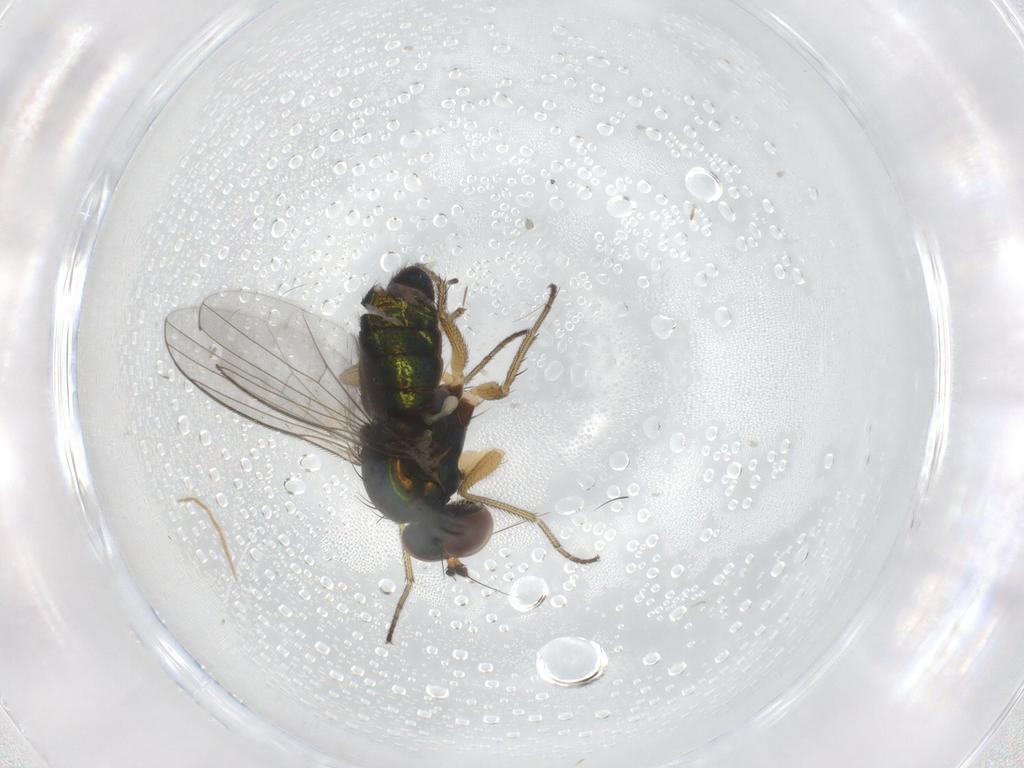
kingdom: Animalia
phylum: Arthropoda
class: Insecta
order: Diptera
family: Dolichopodidae
